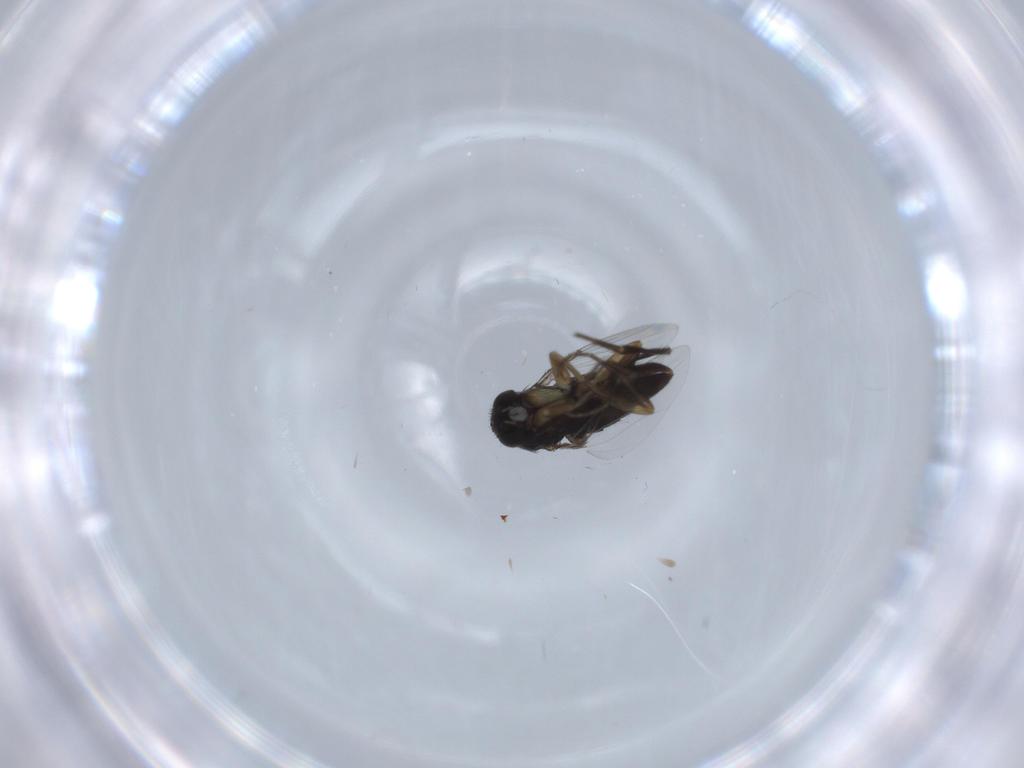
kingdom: Animalia
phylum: Arthropoda
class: Insecta
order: Diptera
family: Phoridae
